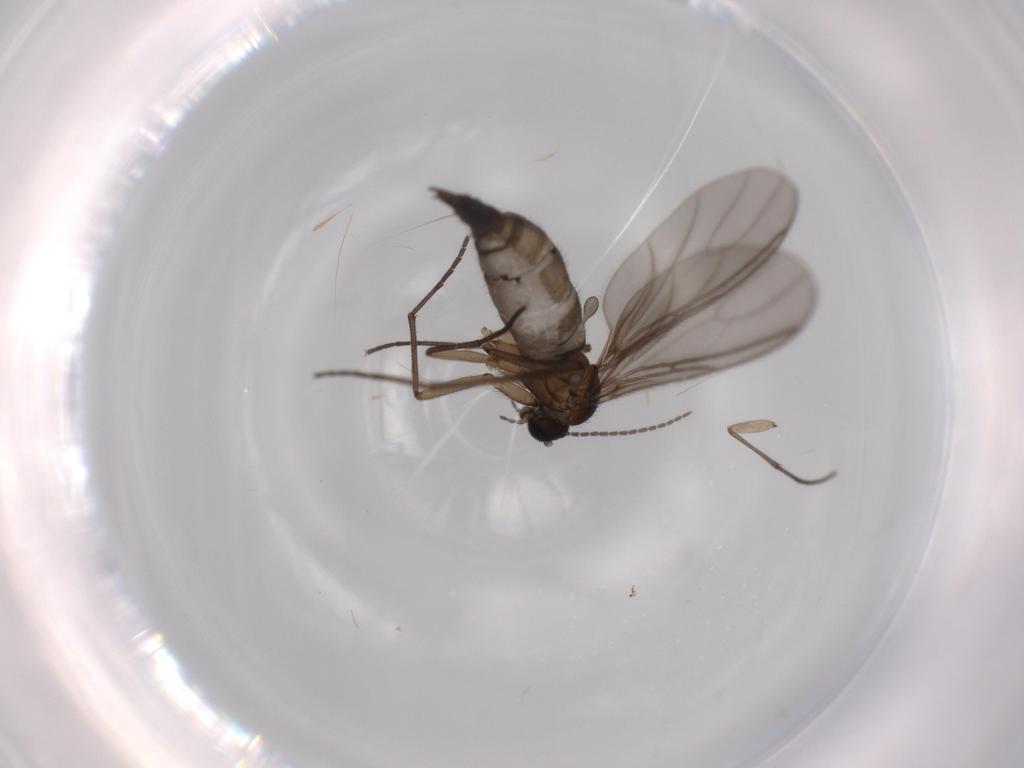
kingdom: Animalia
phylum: Arthropoda
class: Insecta
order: Diptera
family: Sciaridae
